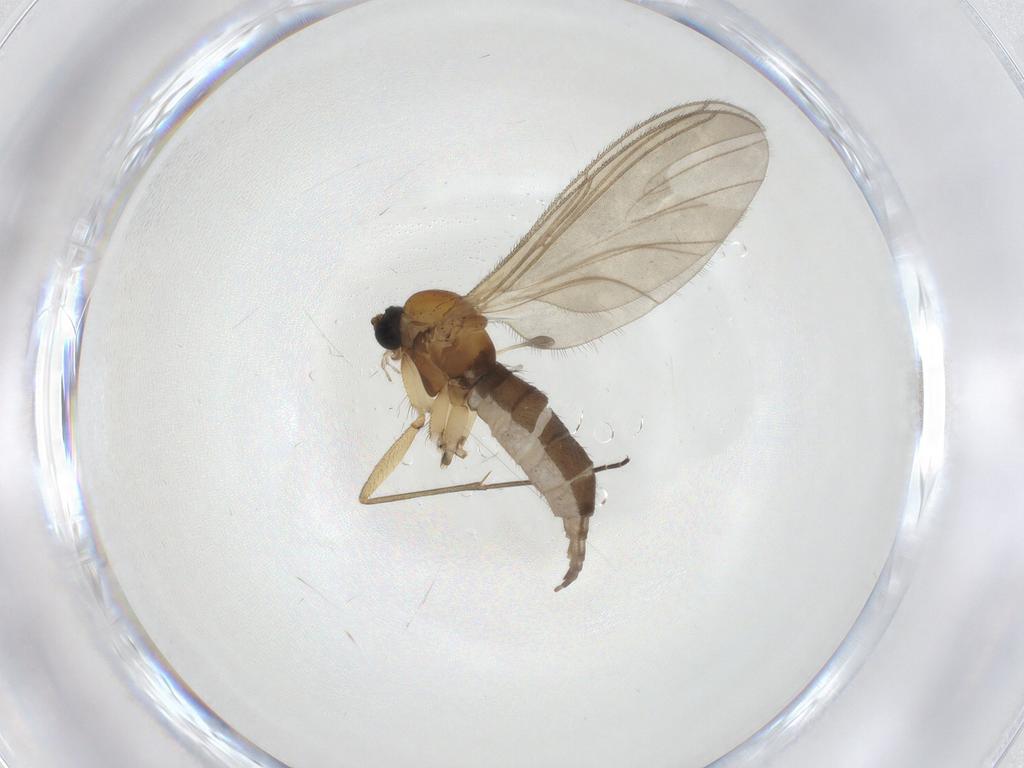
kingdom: Animalia
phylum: Arthropoda
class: Insecta
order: Diptera
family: Sciaridae
